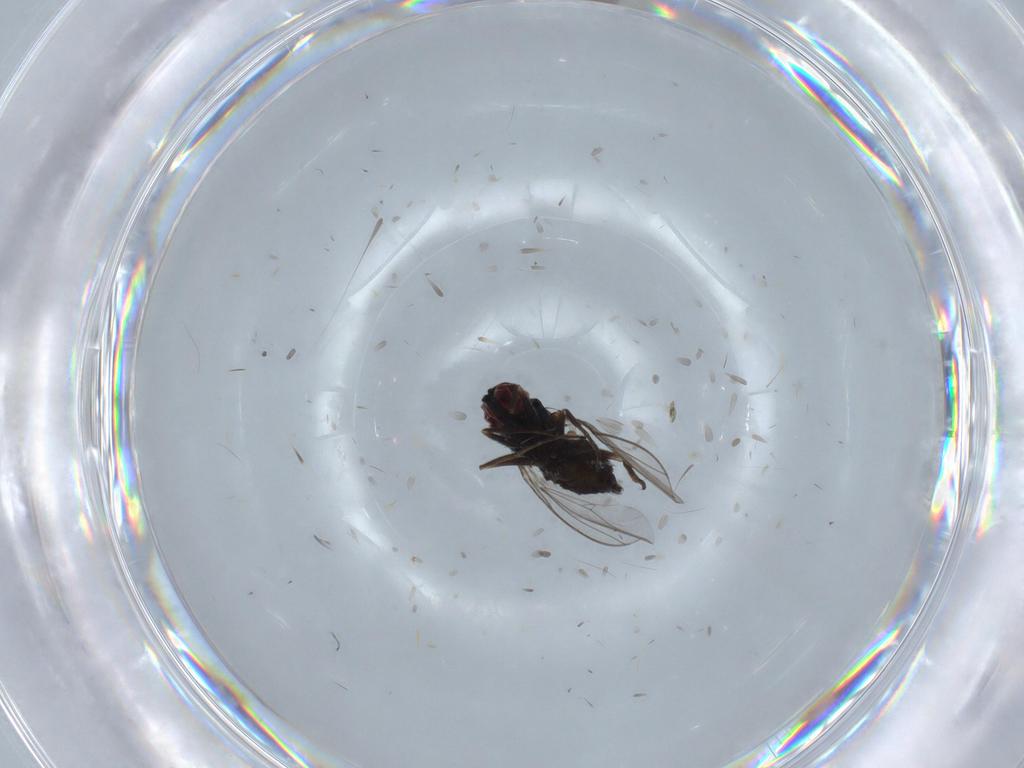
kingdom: Animalia
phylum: Arthropoda
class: Insecta
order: Diptera
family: Dolichopodidae
